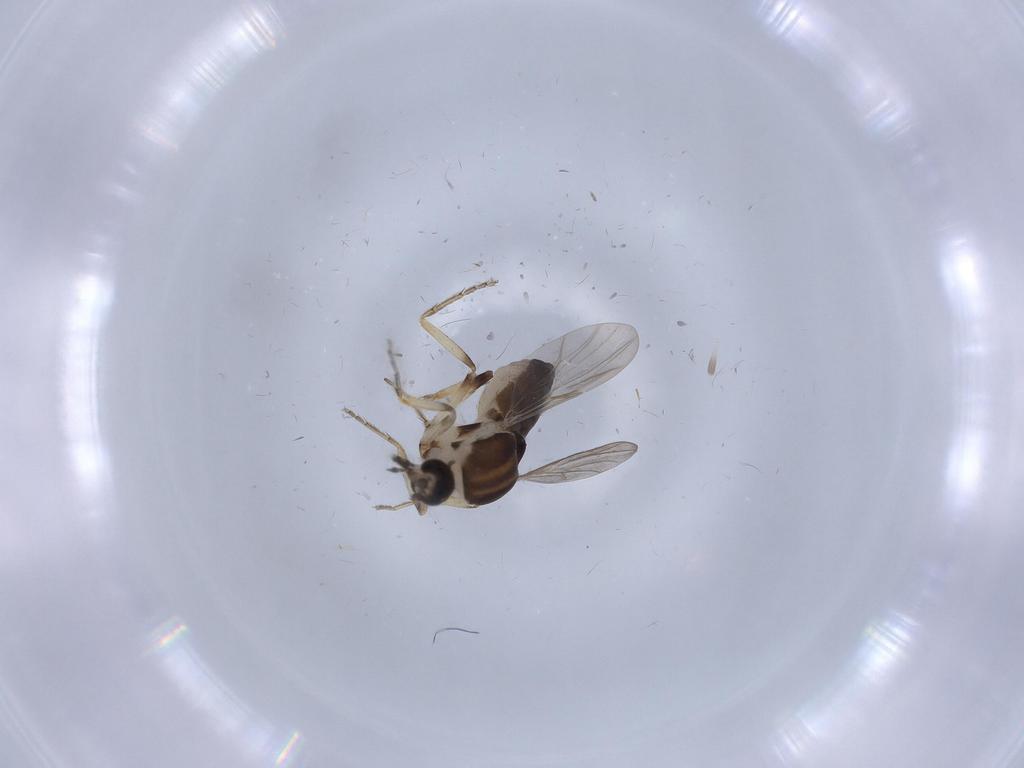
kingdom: Animalia
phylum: Arthropoda
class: Insecta
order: Diptera
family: Ceratopogonidae
